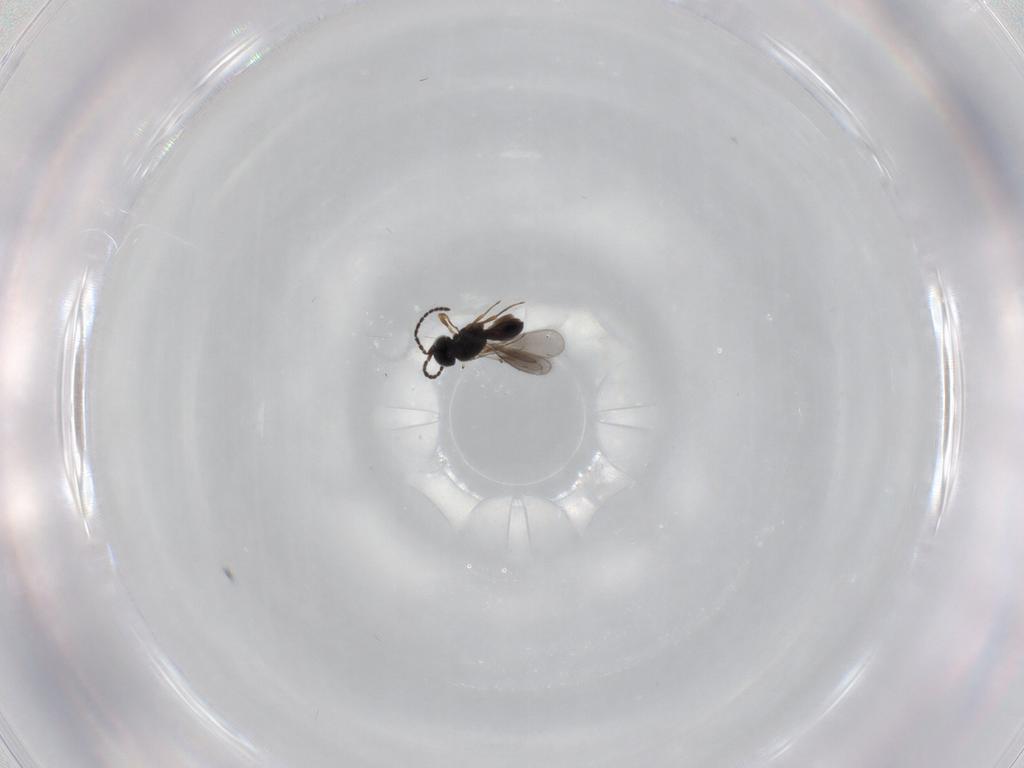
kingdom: Animalia
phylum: Arthropoda
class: Insecta
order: Hymenoptera
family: Scelionidae
